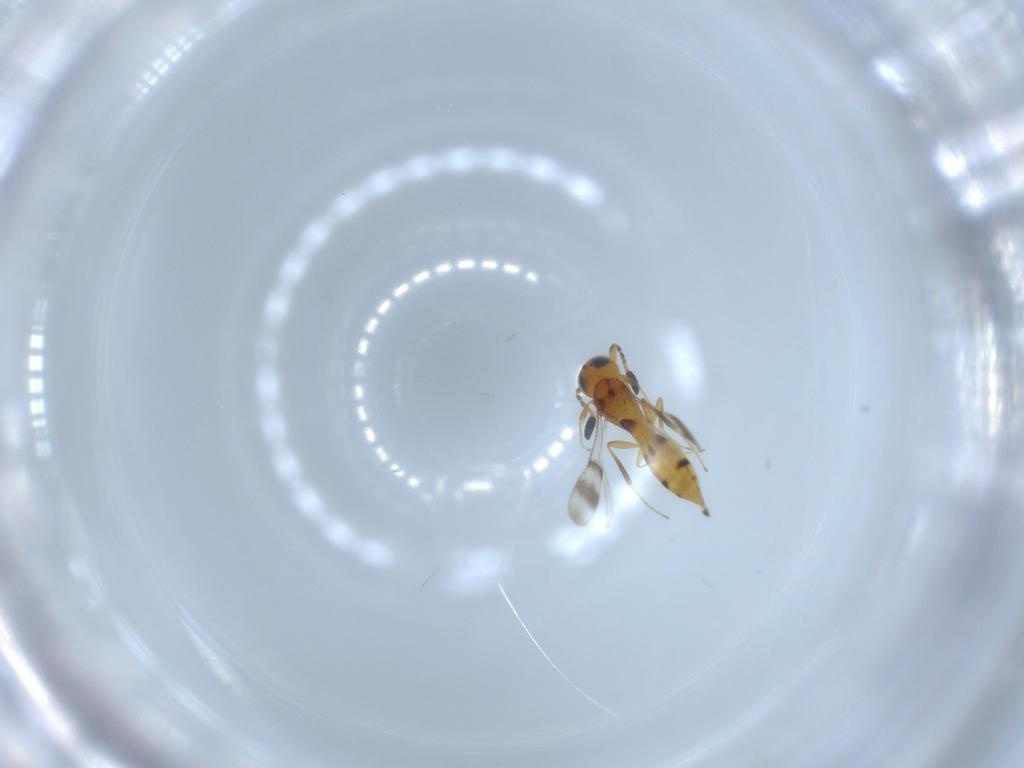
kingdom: Animalia
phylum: Arthropoda
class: Insecta
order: Hymenoptera
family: Scelionidae
